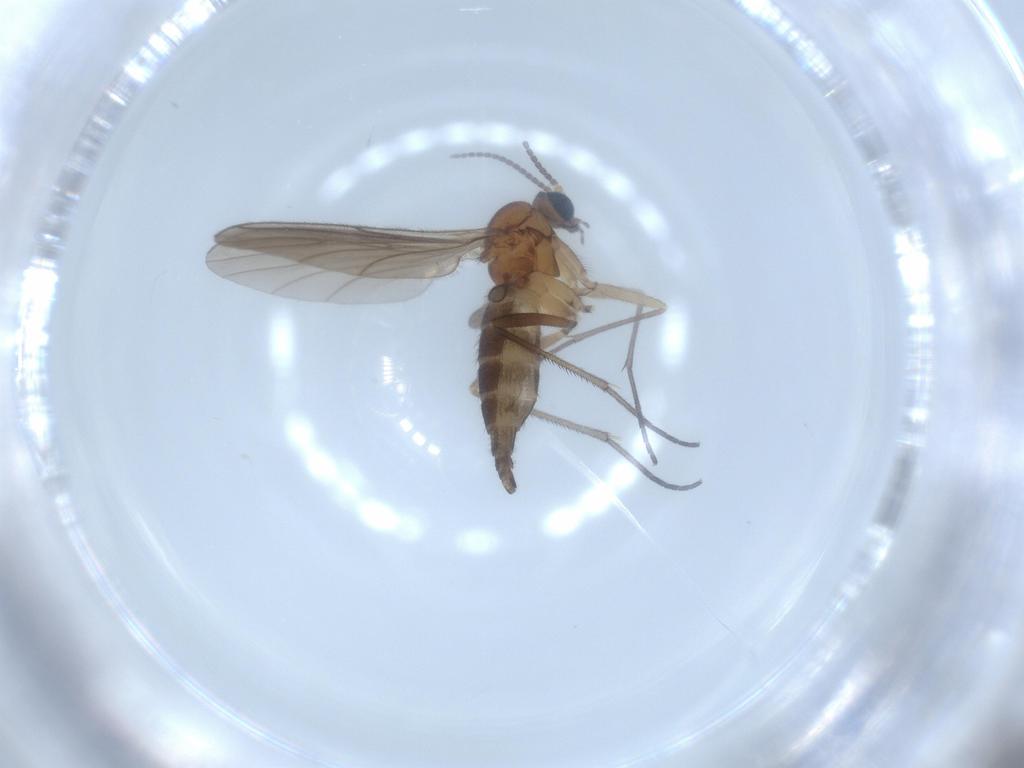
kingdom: Animalia
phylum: Arthropoda
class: Insecta
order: Diptera
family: Sciaridae
